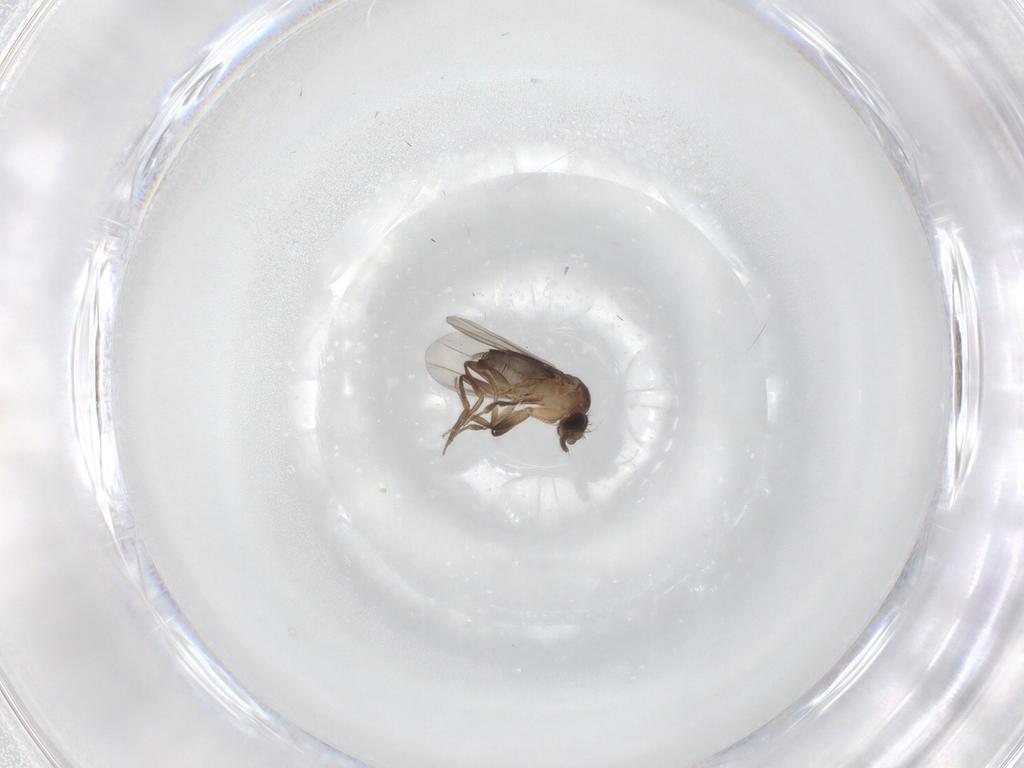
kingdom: Animalia
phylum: Arthropoda
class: Insecta
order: Diptera
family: Phoridae
